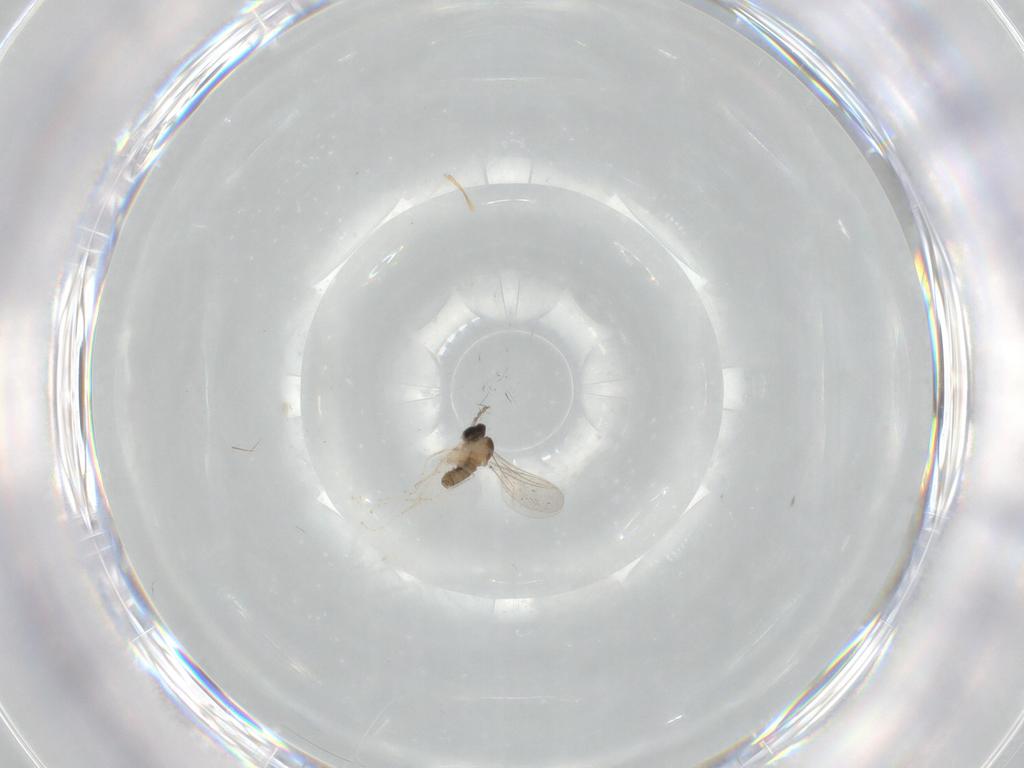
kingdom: Animalia
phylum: Arthropoda
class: Insecta
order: Diptera
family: Cecidomyiidae
